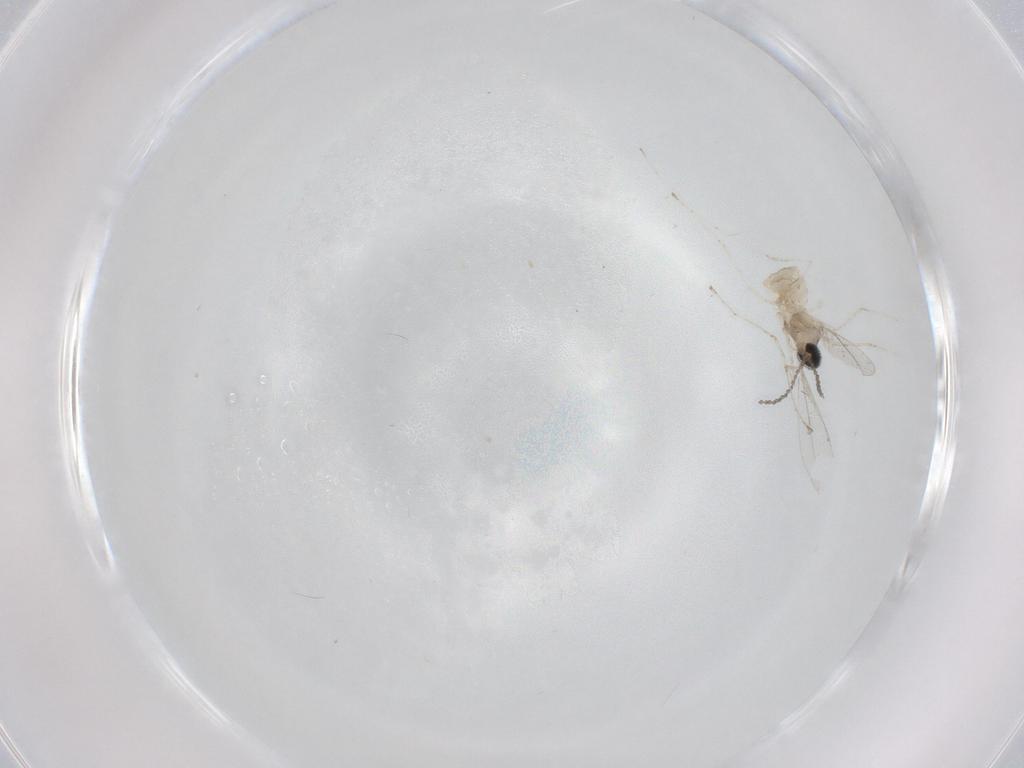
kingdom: Animalia
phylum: Arthropoda
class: Insecta
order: Diptera
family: Cecidomyiidae
